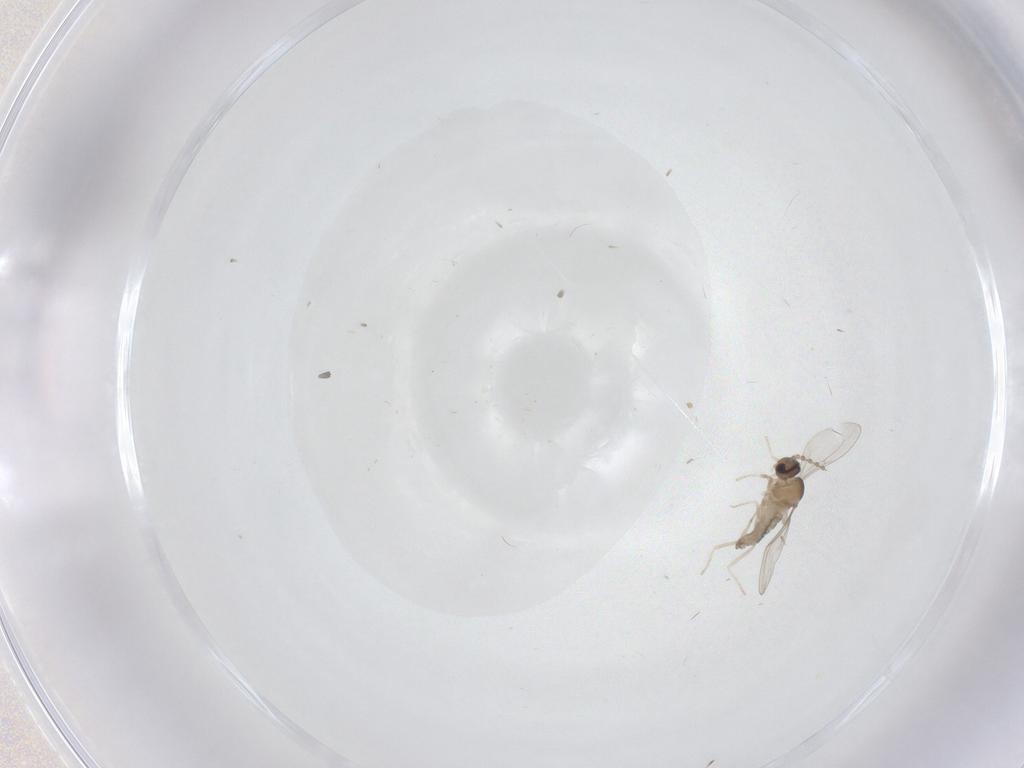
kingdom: Animalia
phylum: Arthropoda
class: Insecta
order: Diptera
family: Cecidomyiidae
